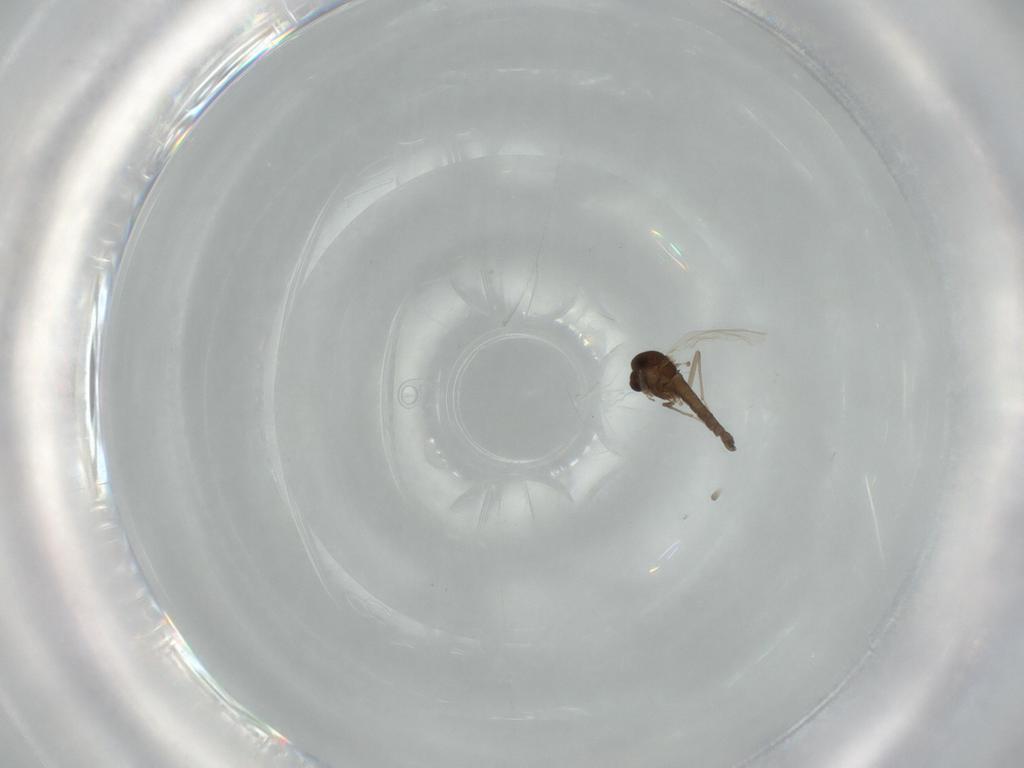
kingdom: Animalia
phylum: Arthropoda
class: Insecta
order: Diptera
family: Chironomidae
